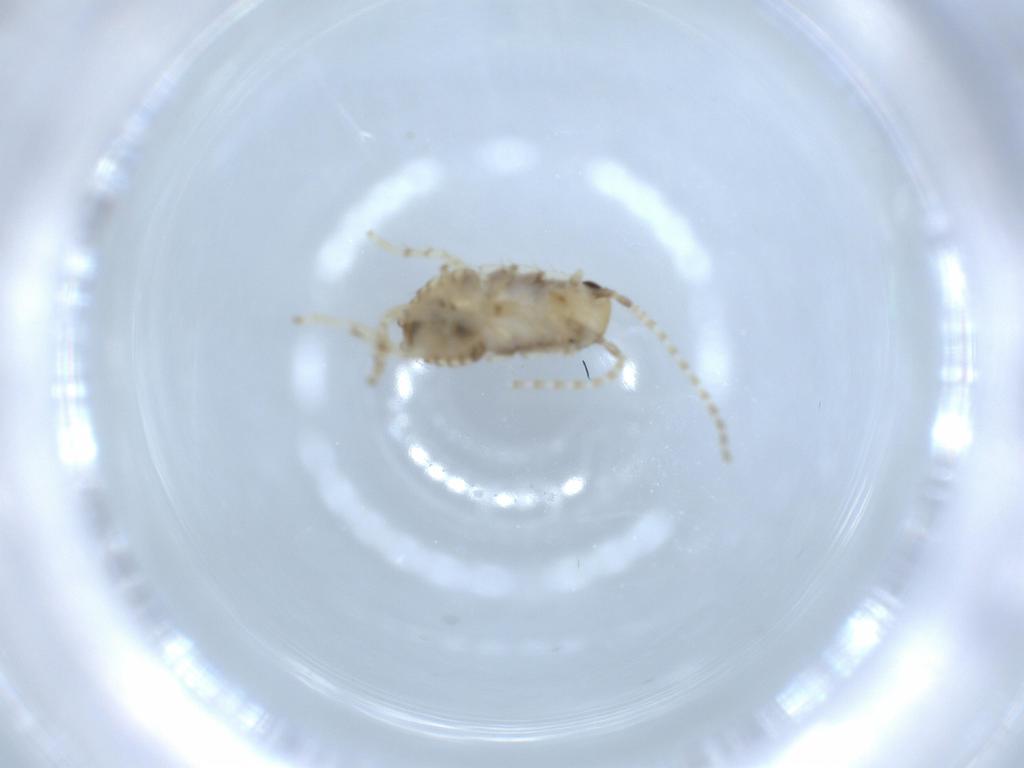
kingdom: Animalia
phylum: Arthropoda
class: Insecta
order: Blattodea
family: Ectobiidae
